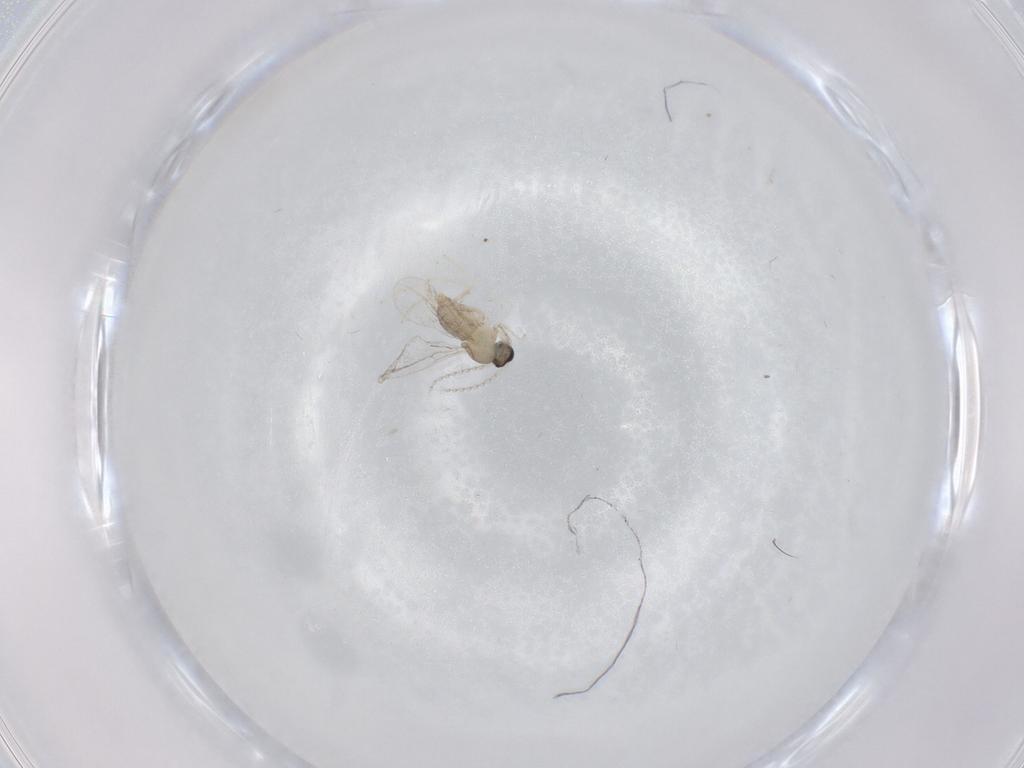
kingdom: Animalia
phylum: Arthropoda
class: Insecta
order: Diptera
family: Cecidomyiidae
